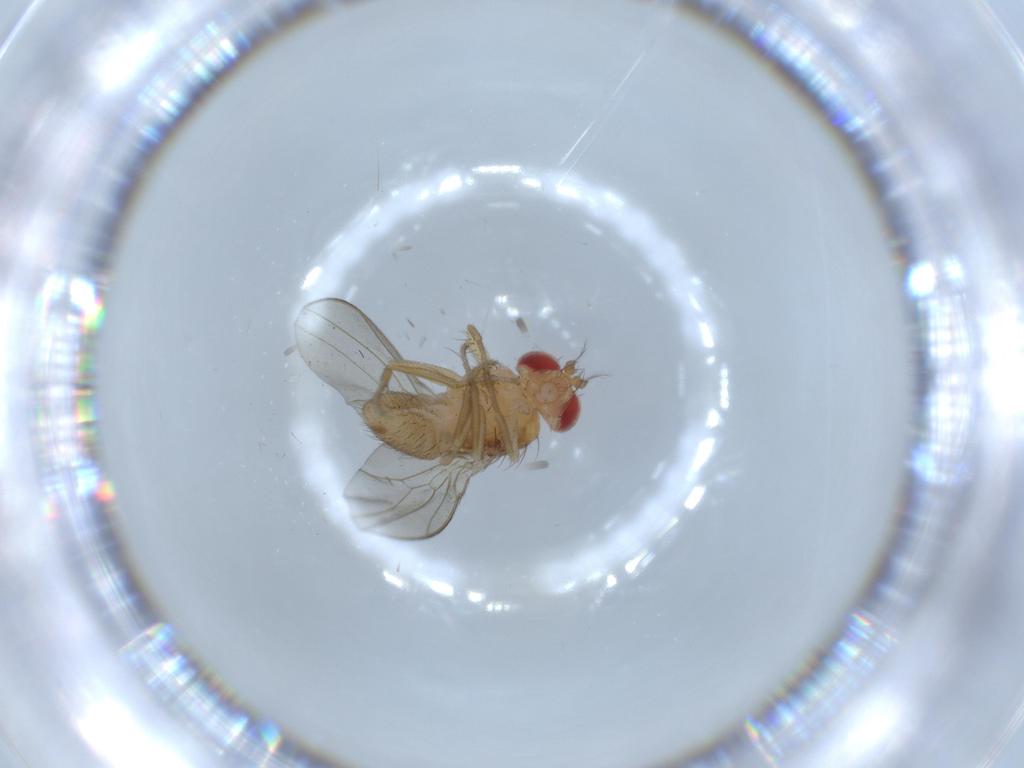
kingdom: Animalia
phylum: Arthropoda
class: Insecta
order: Diptera
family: Drosophilidae
